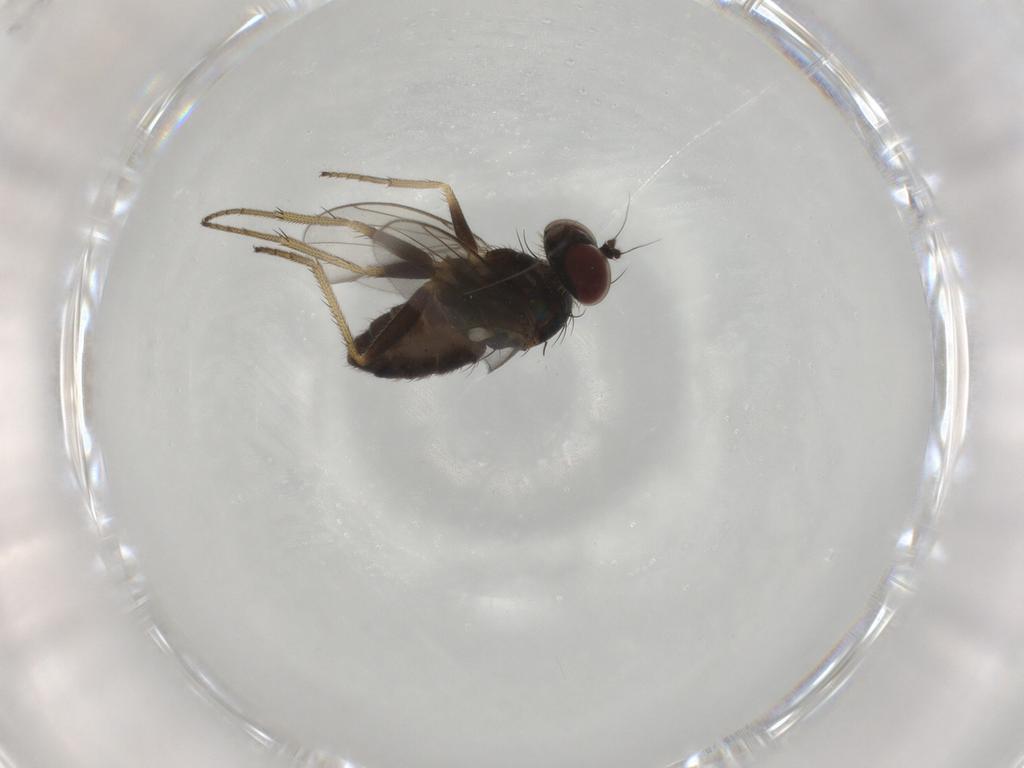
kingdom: Animalia
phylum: Arthropoda
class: Insecta
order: Diptera
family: Dolichopodidae
